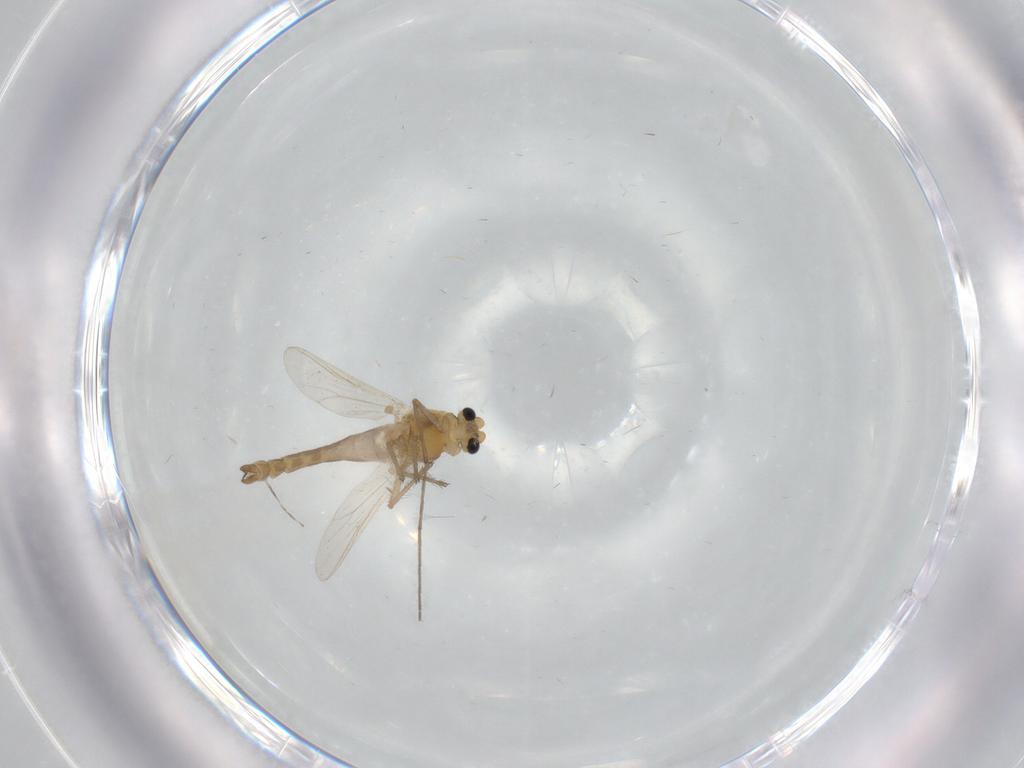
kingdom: Animalia
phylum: Arthropoda
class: Insecta
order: Diptera
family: Cecidomyiidae
